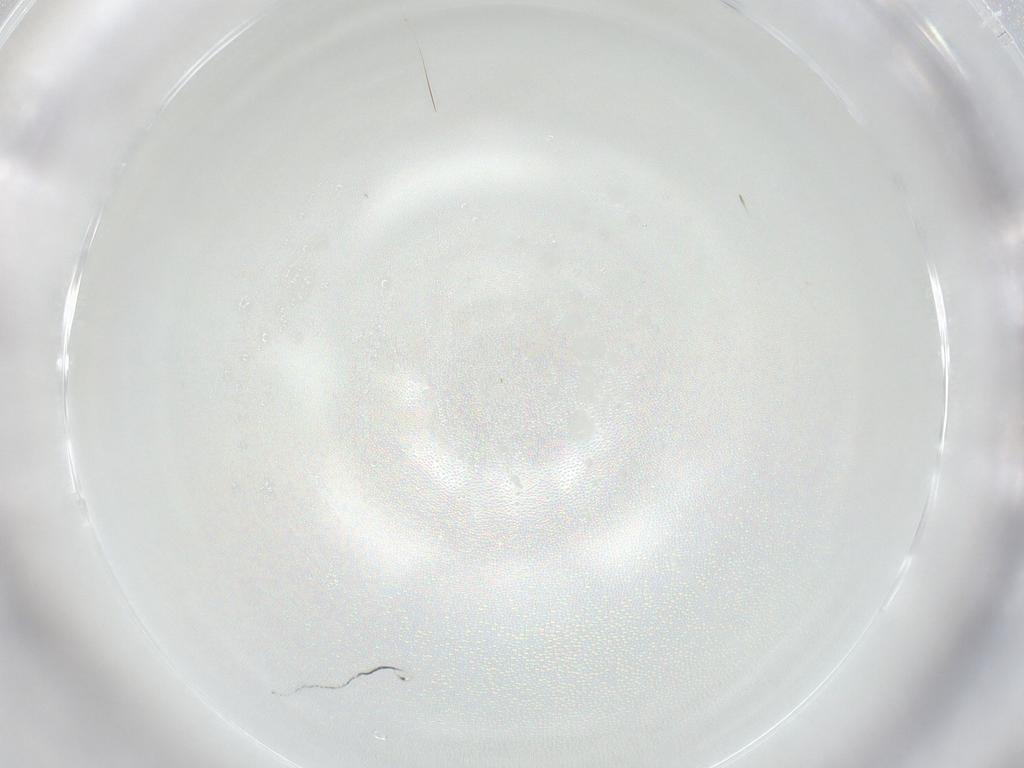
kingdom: Animalia
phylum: Arthropoda
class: Insecta
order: Diptera
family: Cecidomyiidae
